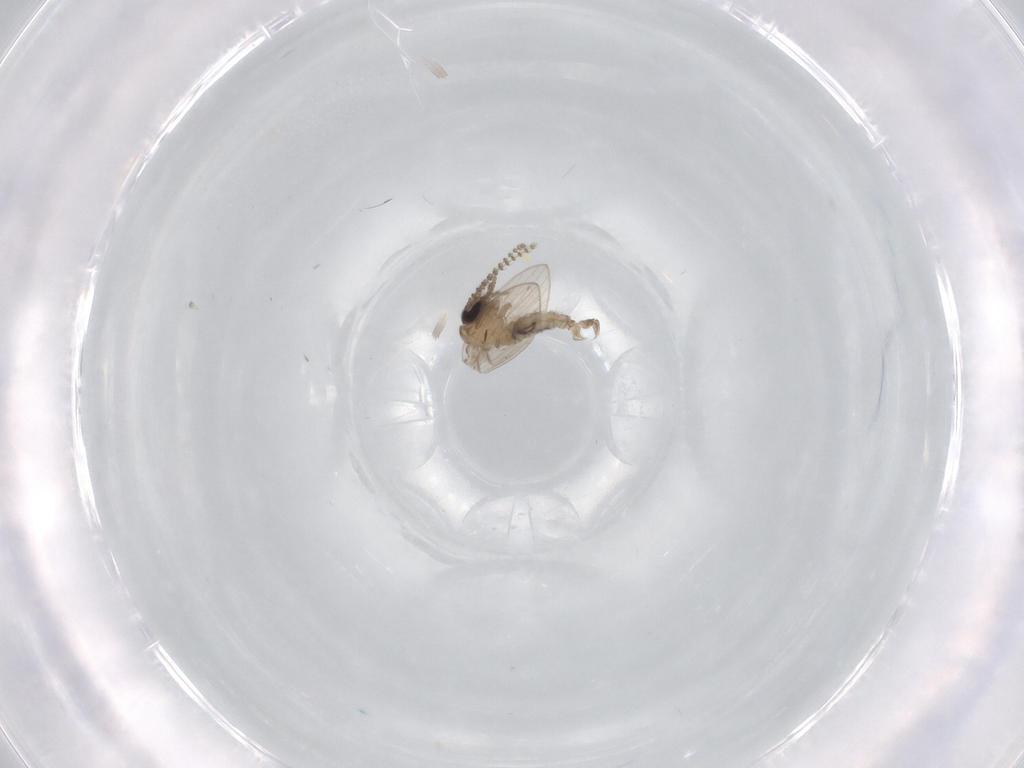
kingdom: Animalia
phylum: Arthropoda
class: Insecta
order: Diptera
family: Psychodidae
